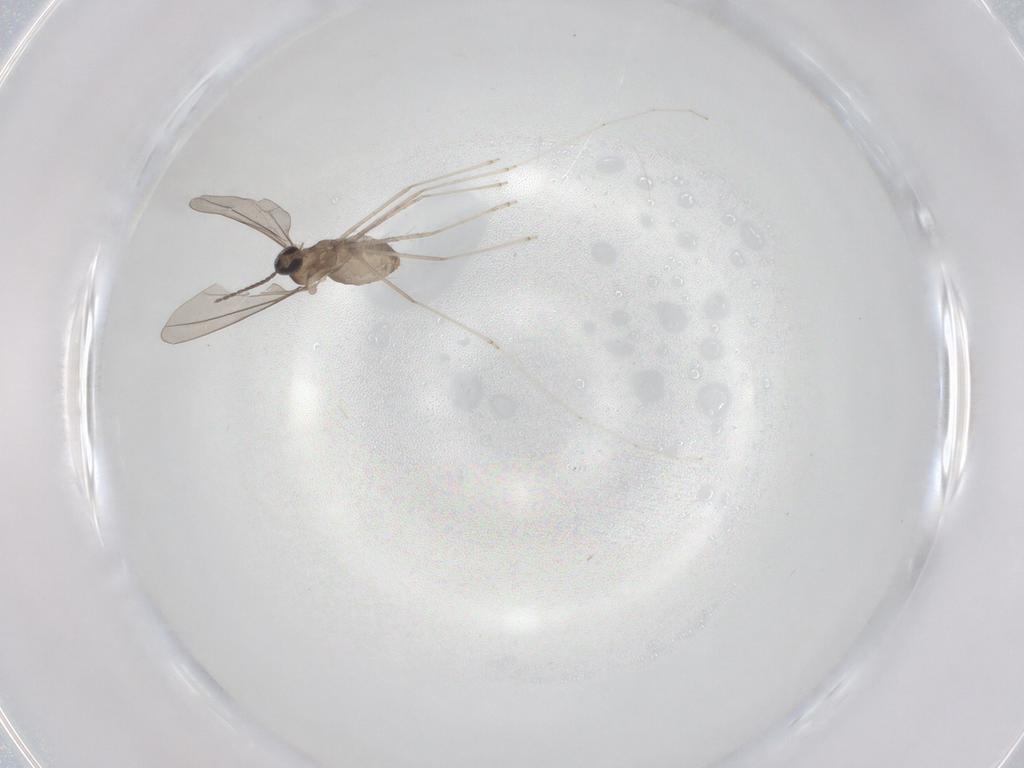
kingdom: Animalia
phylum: Arthropoda
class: Insecta
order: Diptera
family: Cecidomyiidae
